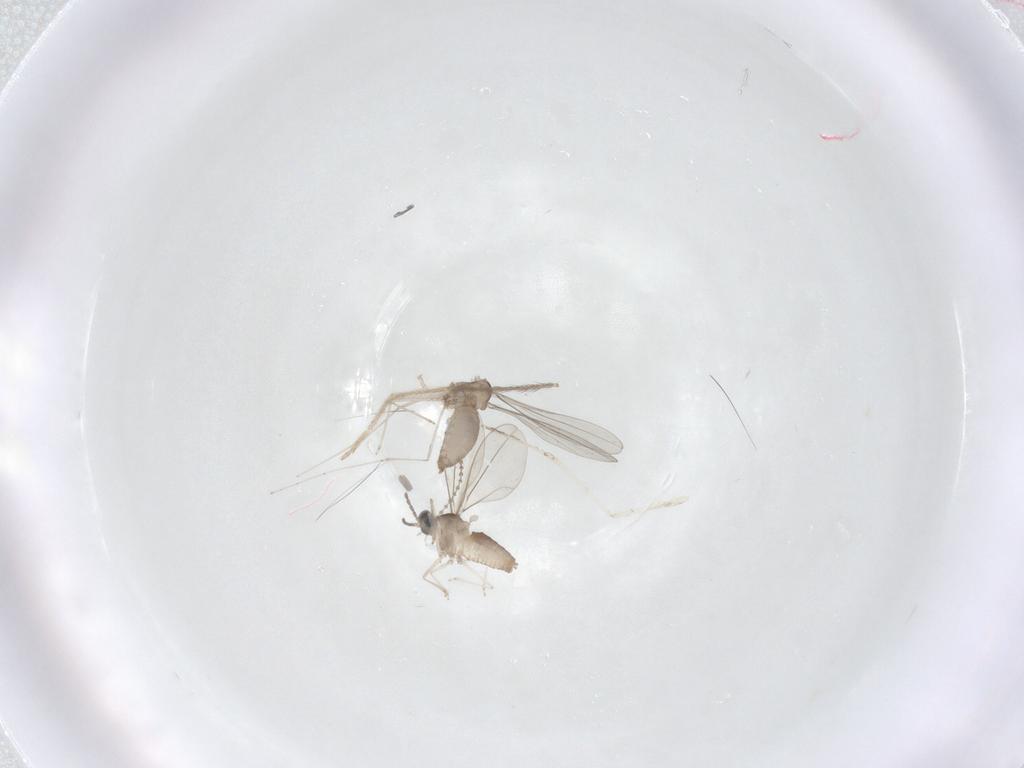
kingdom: Animalia
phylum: Arthropoda
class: Insecta
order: Diptera
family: Cecidomyiidae
